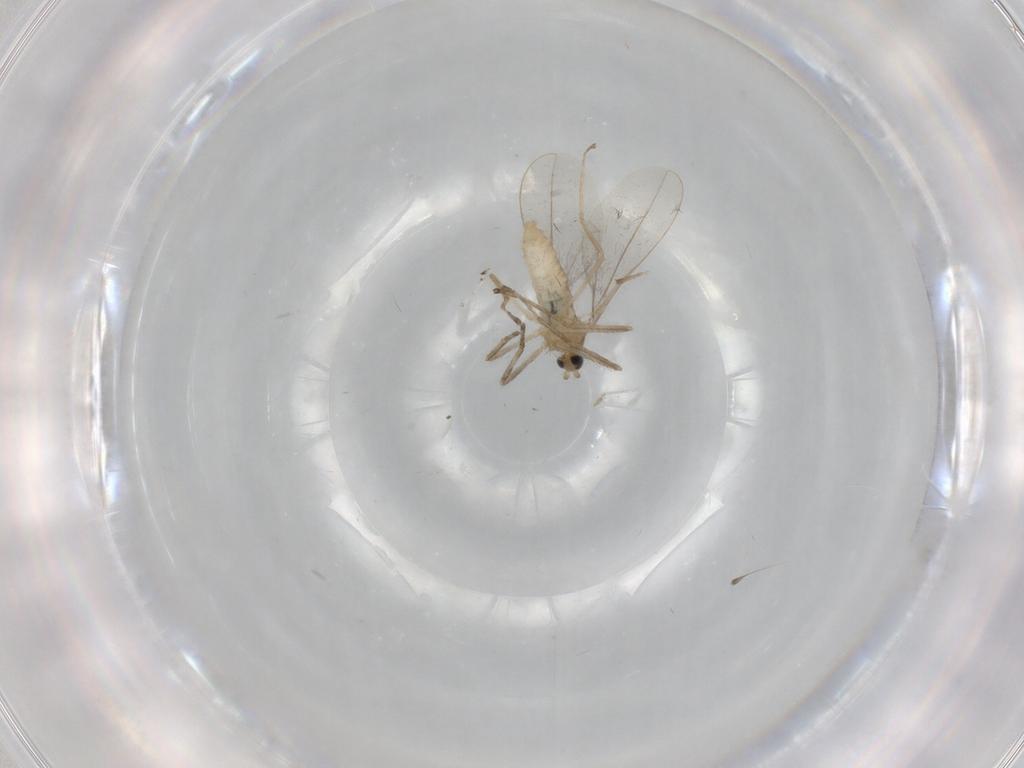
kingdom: Animalia
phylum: Arthropoda
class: Insecta
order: Diptera
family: Cecidomyiidae
